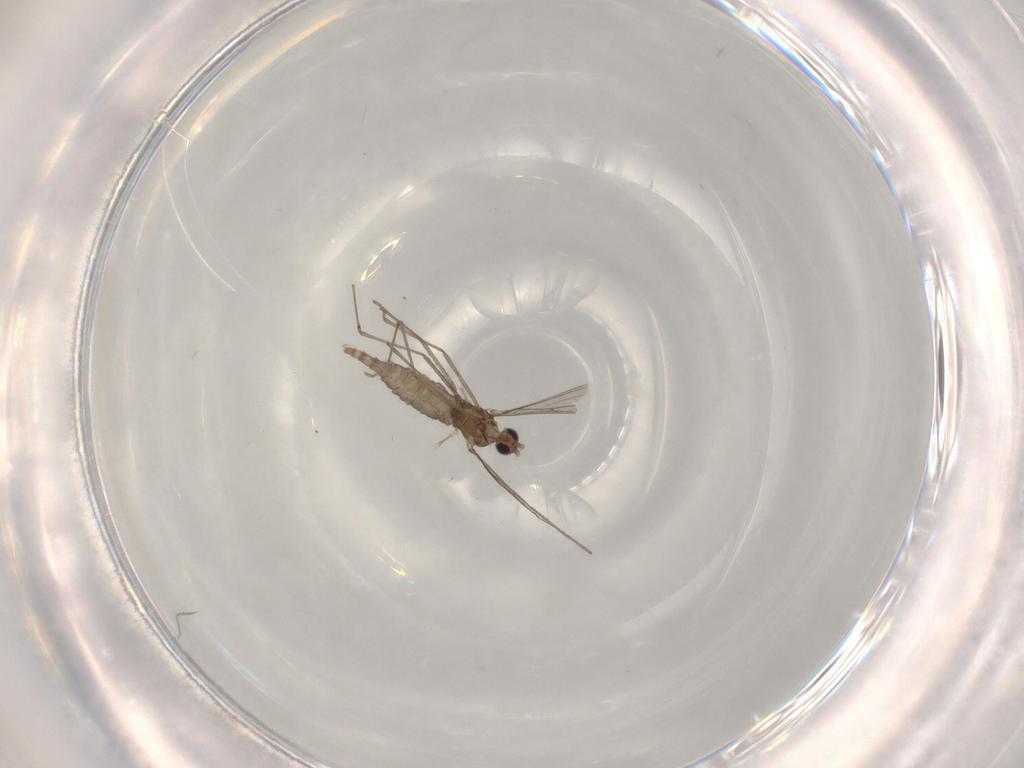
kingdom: Animalia
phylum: Arthropoda
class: Insecta
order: Diptera
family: Cecidomyiidae
